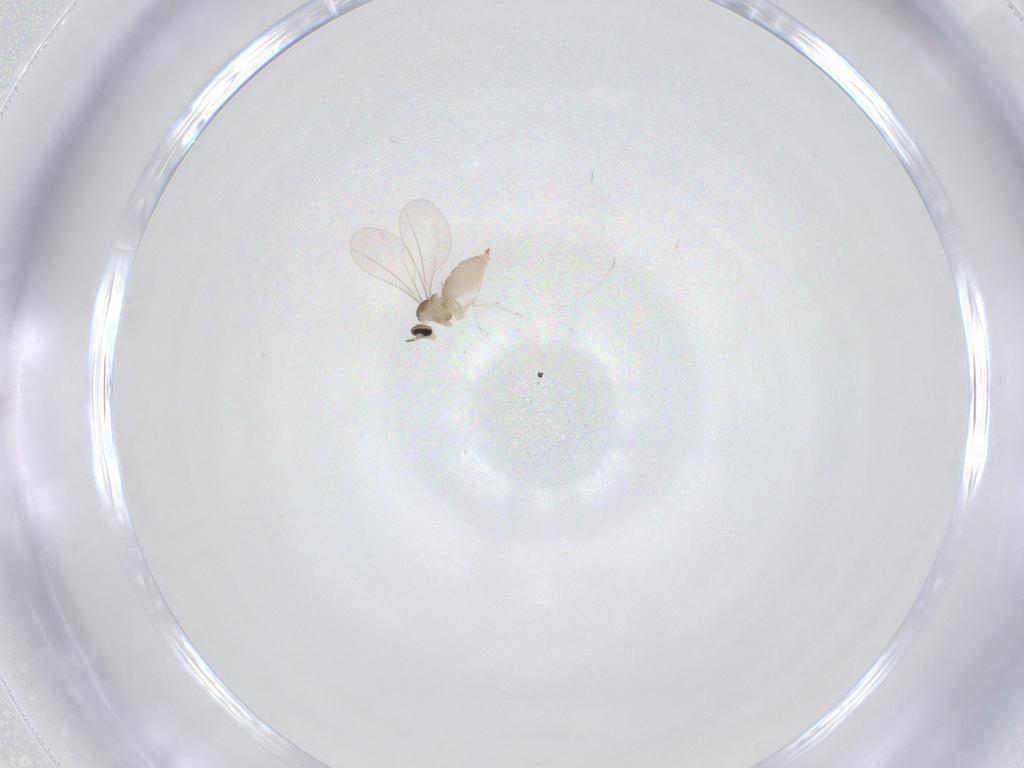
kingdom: Animalia
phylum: Arthropoda
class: Insecta
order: Diptera
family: Cecidomyiidae
